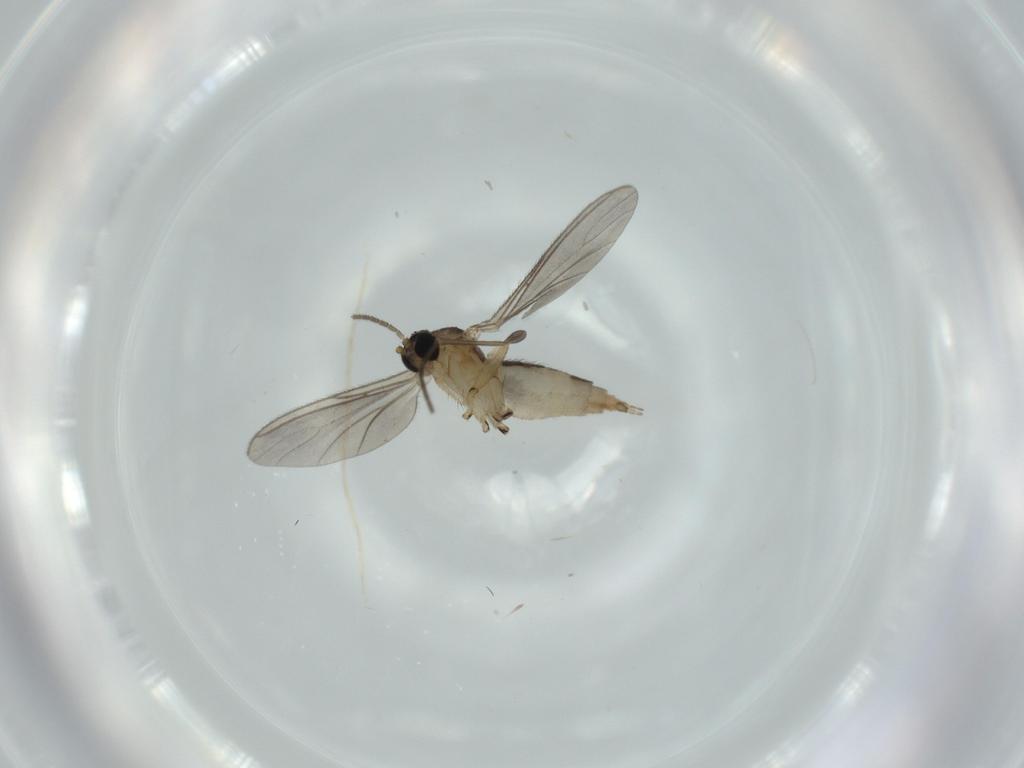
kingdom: Animalia
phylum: Arthropoda
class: Insecta
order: Diptera
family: Sciaridae
